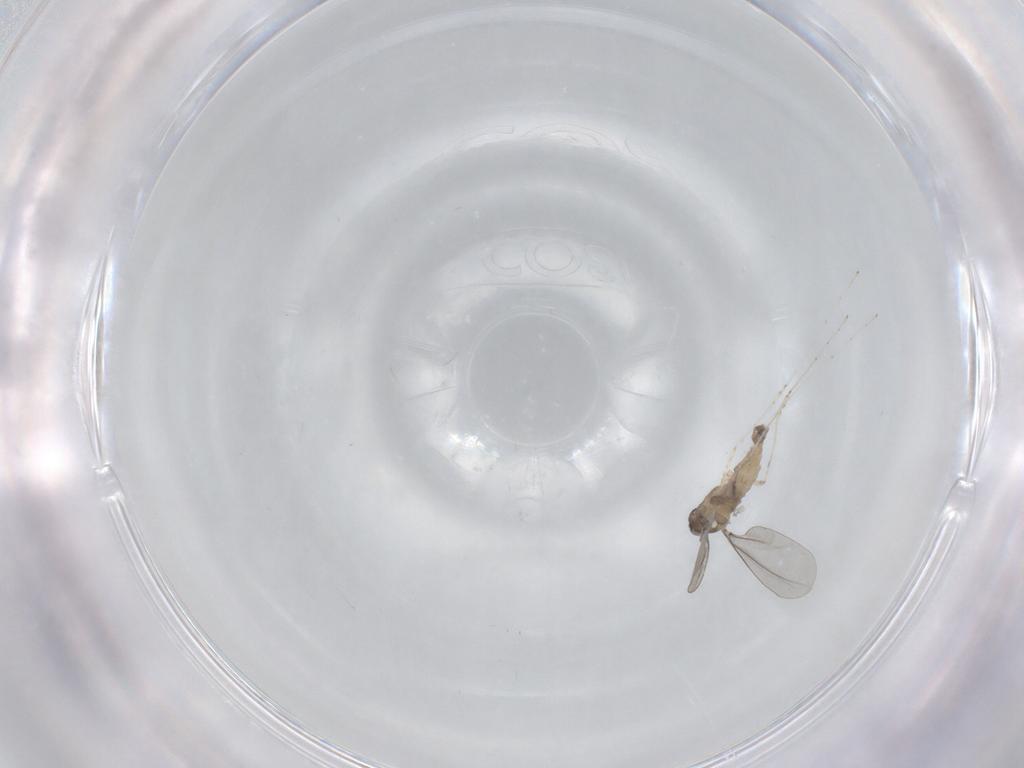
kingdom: Animalia
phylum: Arthropoda
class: Insecta
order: Diptera
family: Cecidomyiidae
